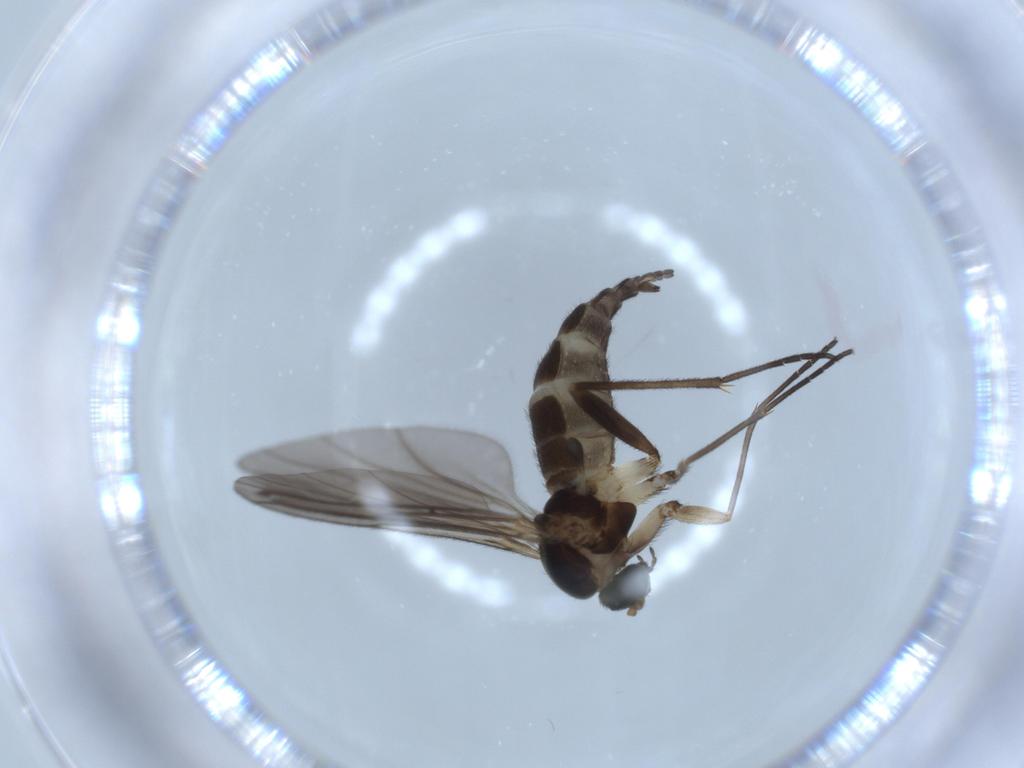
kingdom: Animalia
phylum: Arthropoda
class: Insecta
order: Diptera
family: Sciaridae
